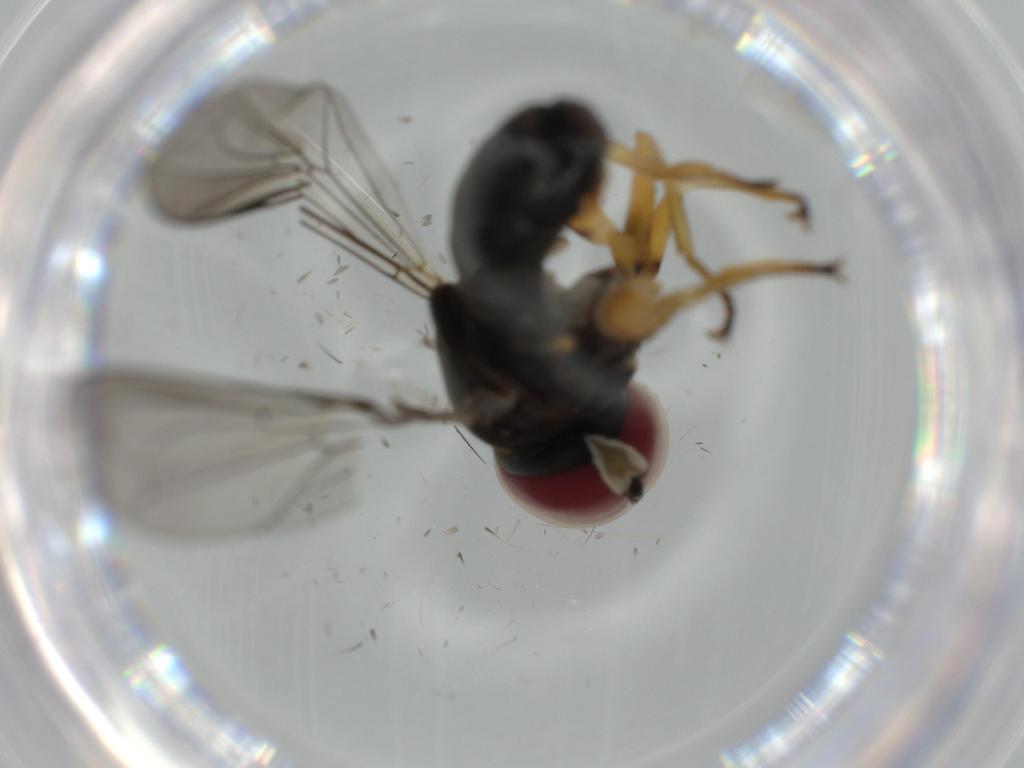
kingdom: Animalia
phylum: Arthropoda
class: Insecta
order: Diptera
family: Cecidomyiidae
